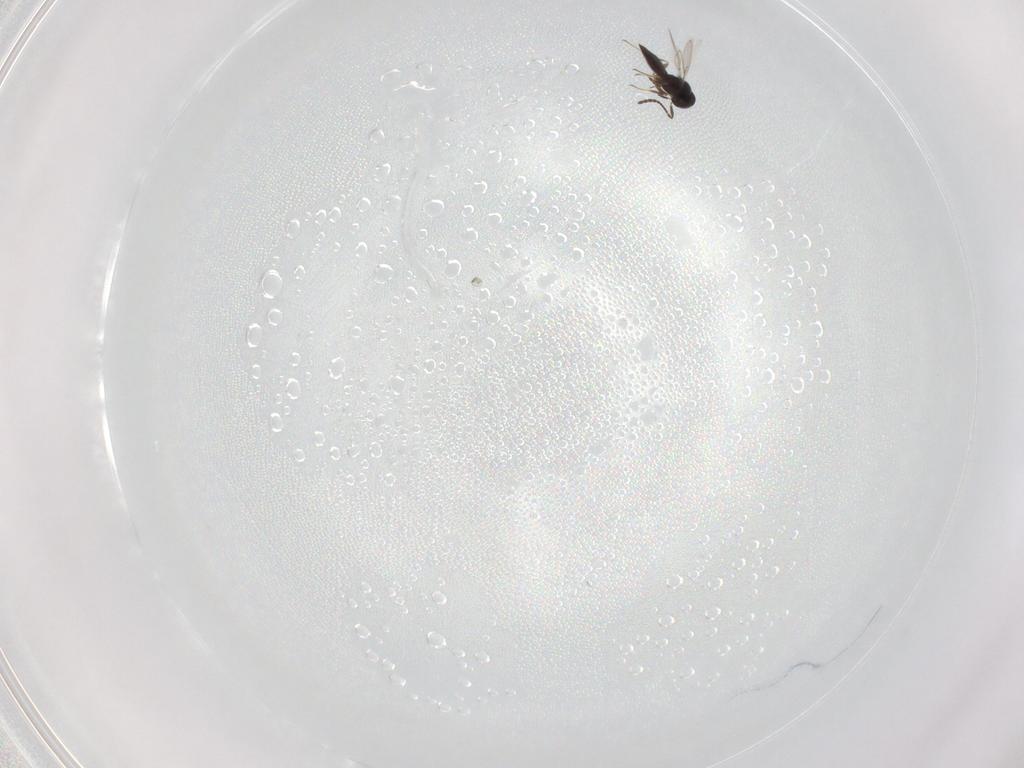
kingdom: Animalia
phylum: Arthropoda
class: Insecta
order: Hymenoptera
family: Scelionidae
